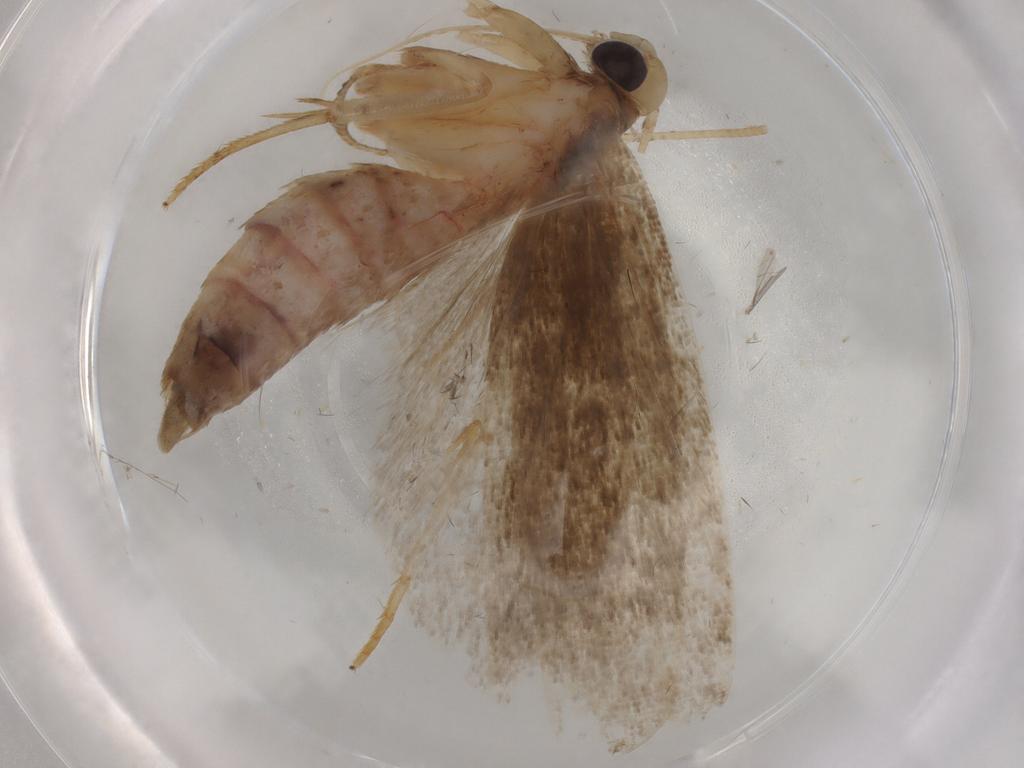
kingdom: Animalia
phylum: Arthropoda
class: Insecta
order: Lepidoptera
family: Autostichidae
